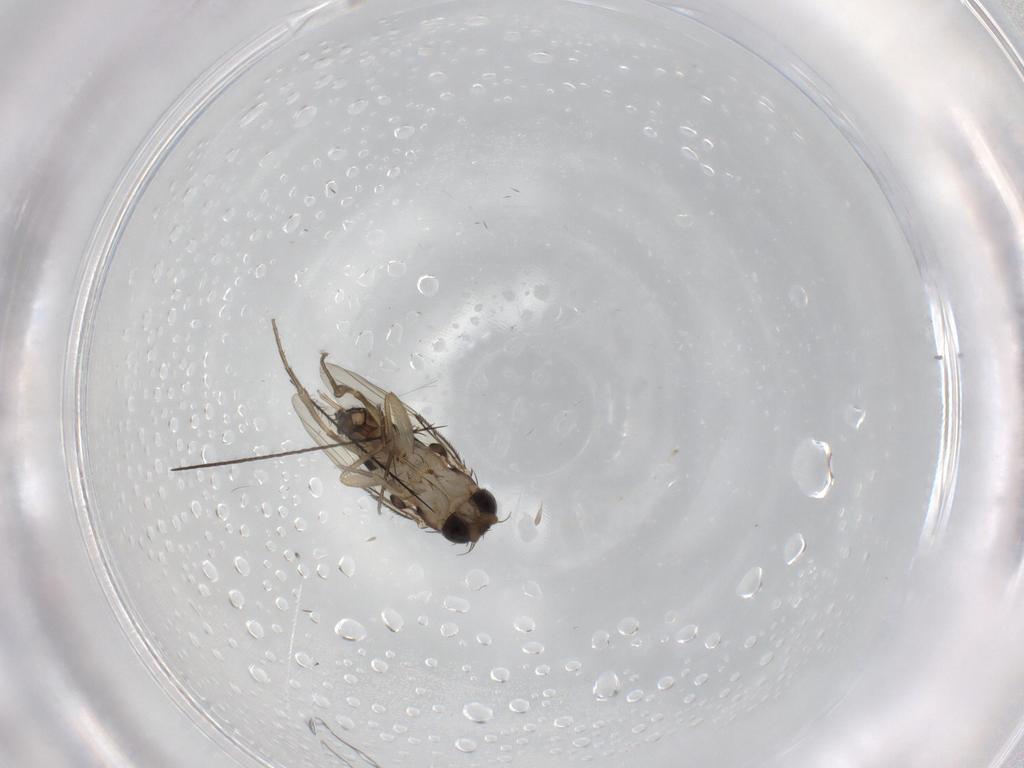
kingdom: Animalia
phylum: Arthropoda
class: Insecta
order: Diptera
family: Phoridae
